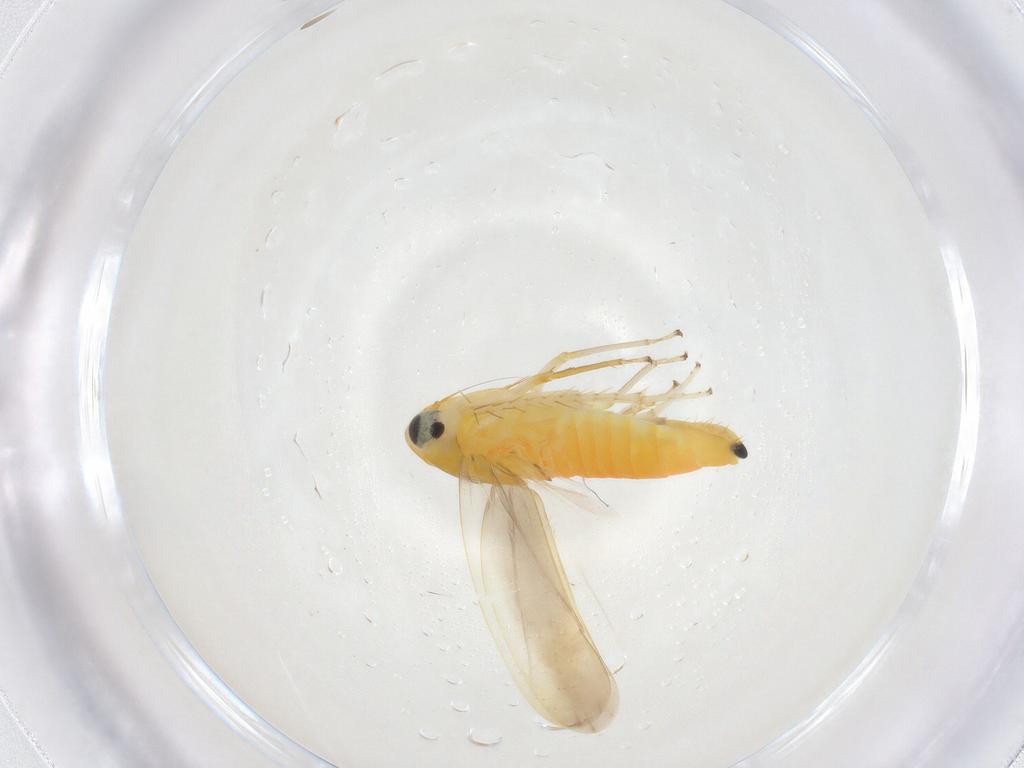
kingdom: Animalia
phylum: Arthropoda
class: Insecta
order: Hemiptera
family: Cicadellidae
